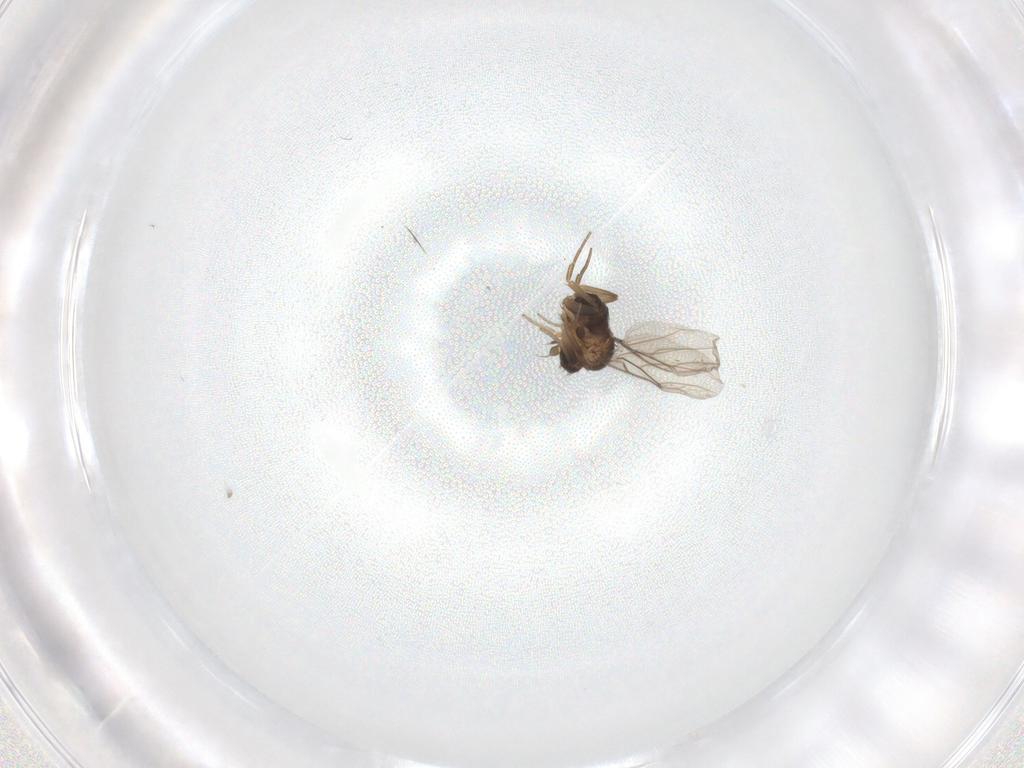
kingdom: Animalia
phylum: Arthropoda
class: Insecta
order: Diptera
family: Phoridae
